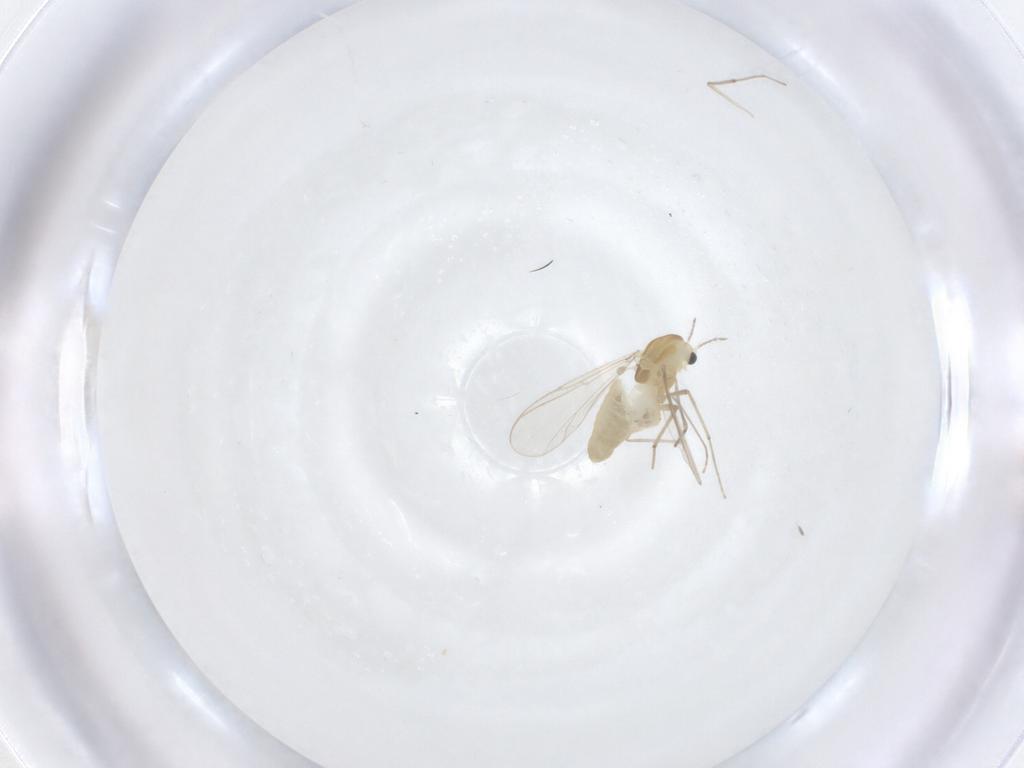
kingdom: Animalia
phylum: Arthropoda
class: Insecta
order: Diptera
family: Chironomidae
